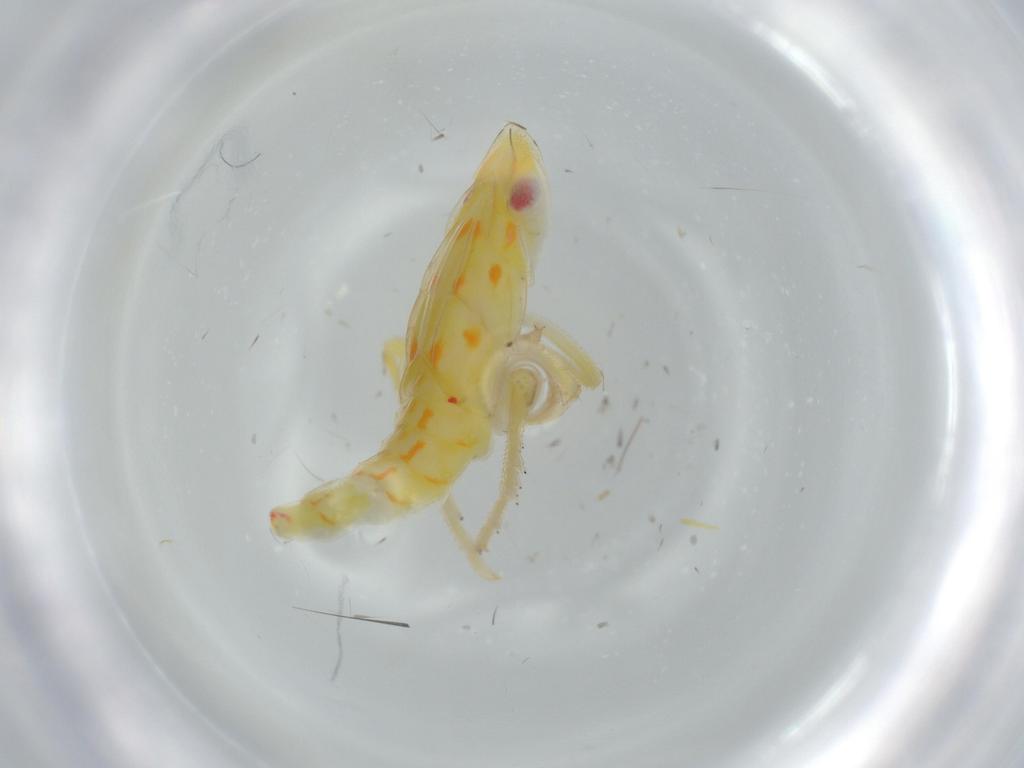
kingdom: Animalia
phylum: Arthropoda
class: Insecta
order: Hemiptera
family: Tropiduchidae
